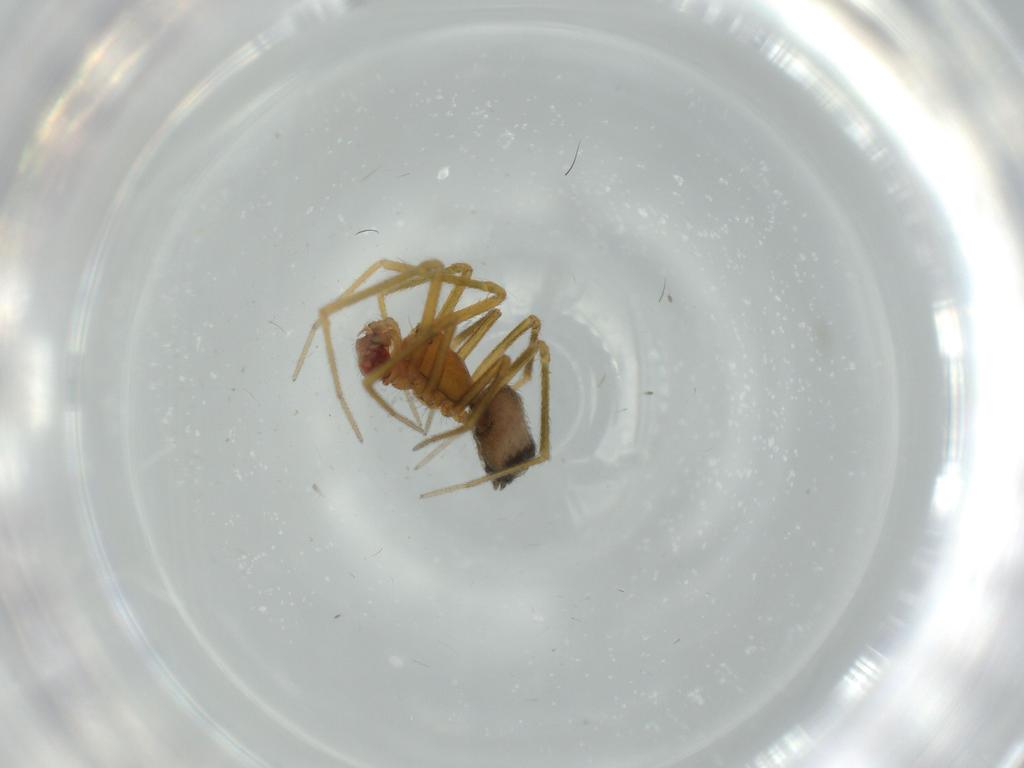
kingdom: Animalia
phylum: Arthropoda
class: Arachnida
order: Araneae
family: Linyphiidae
